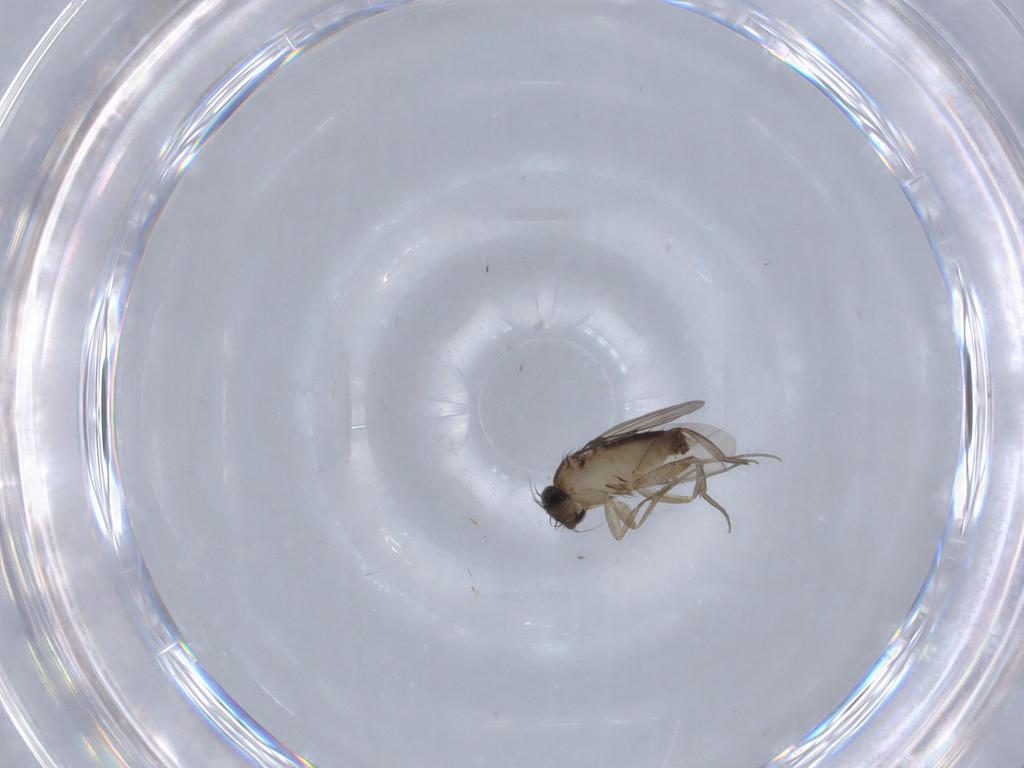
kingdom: Animalia
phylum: Arthropoda
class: Insecta
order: Diptera
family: Phoridae
